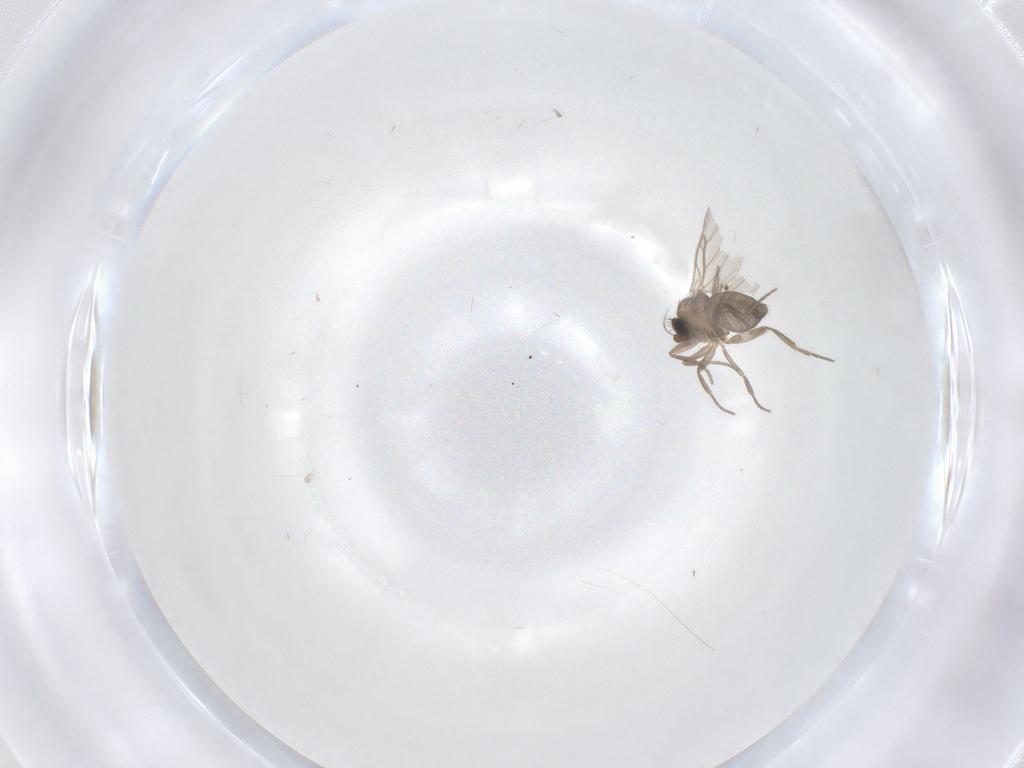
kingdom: Animalia
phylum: Arthropoda
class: Insecta
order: Diptera
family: Phoridae
